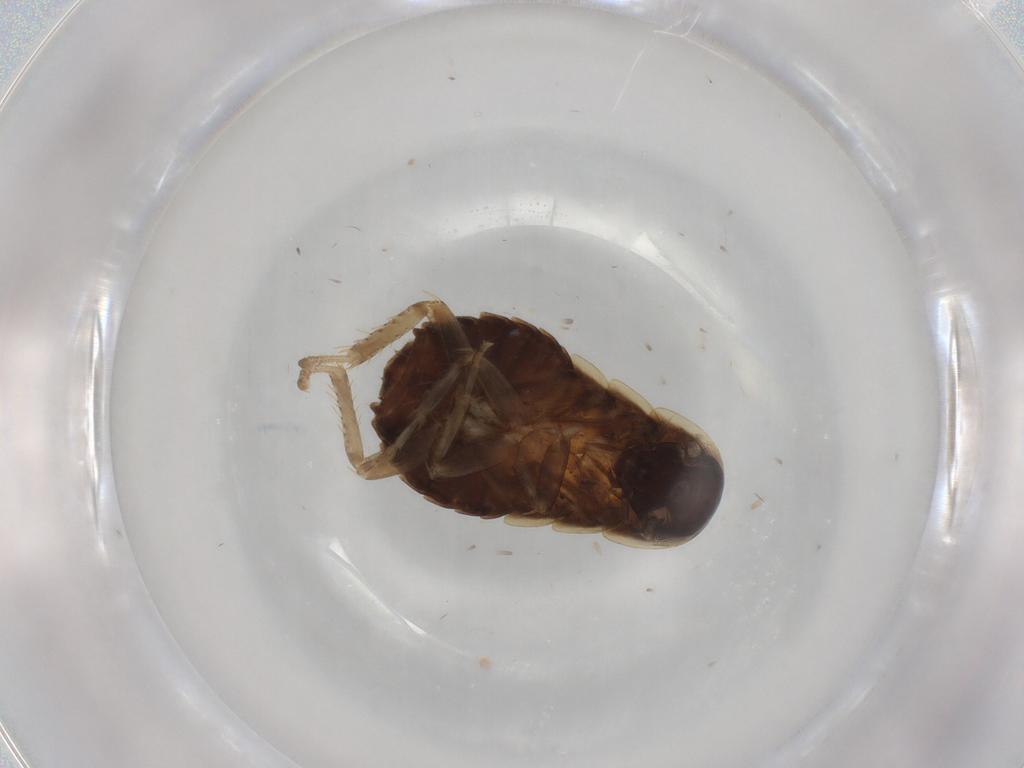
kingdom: Animalia
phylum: Arthropoda
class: Insecta
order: Blattodea
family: Ectobiidae
